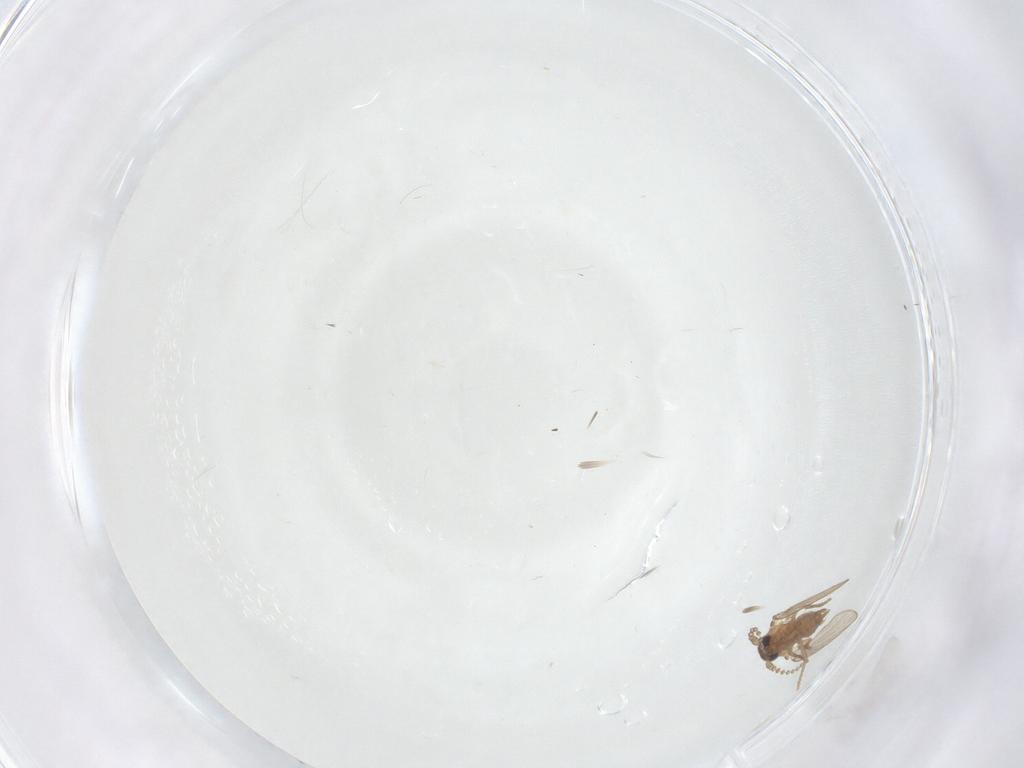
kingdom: Animalia
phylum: Arthropoda
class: Insecta
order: Diptera
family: Psychodidae
